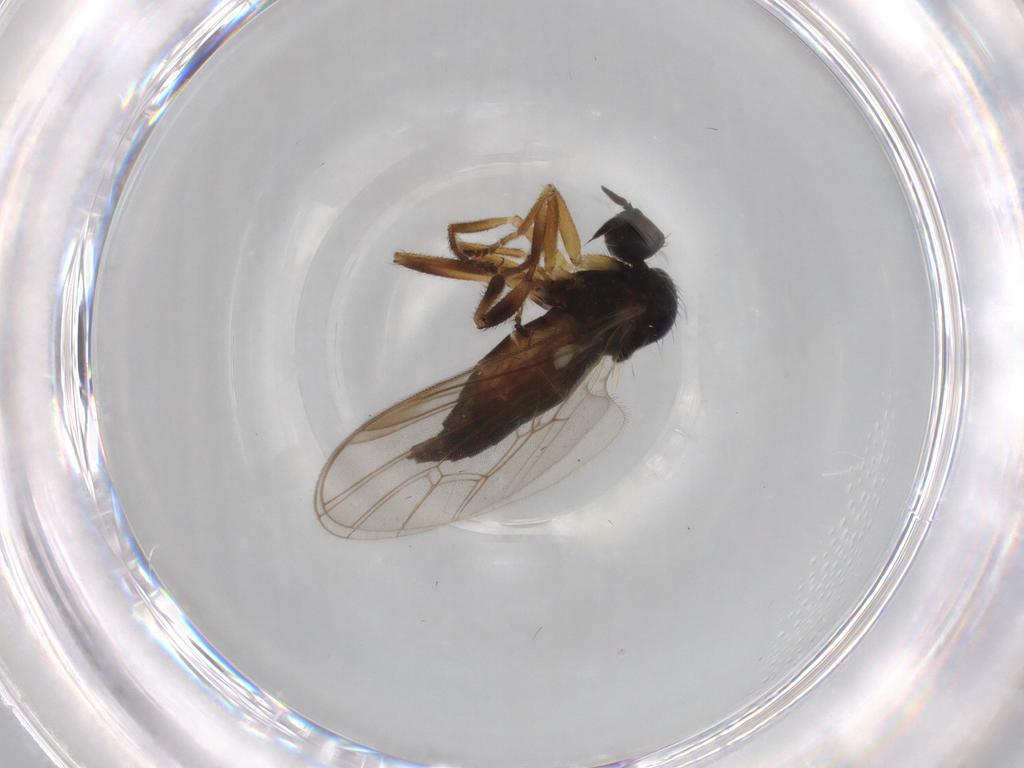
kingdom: Animalia
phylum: Arthropoda
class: Insecta
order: Diptera
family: Hybotidae
